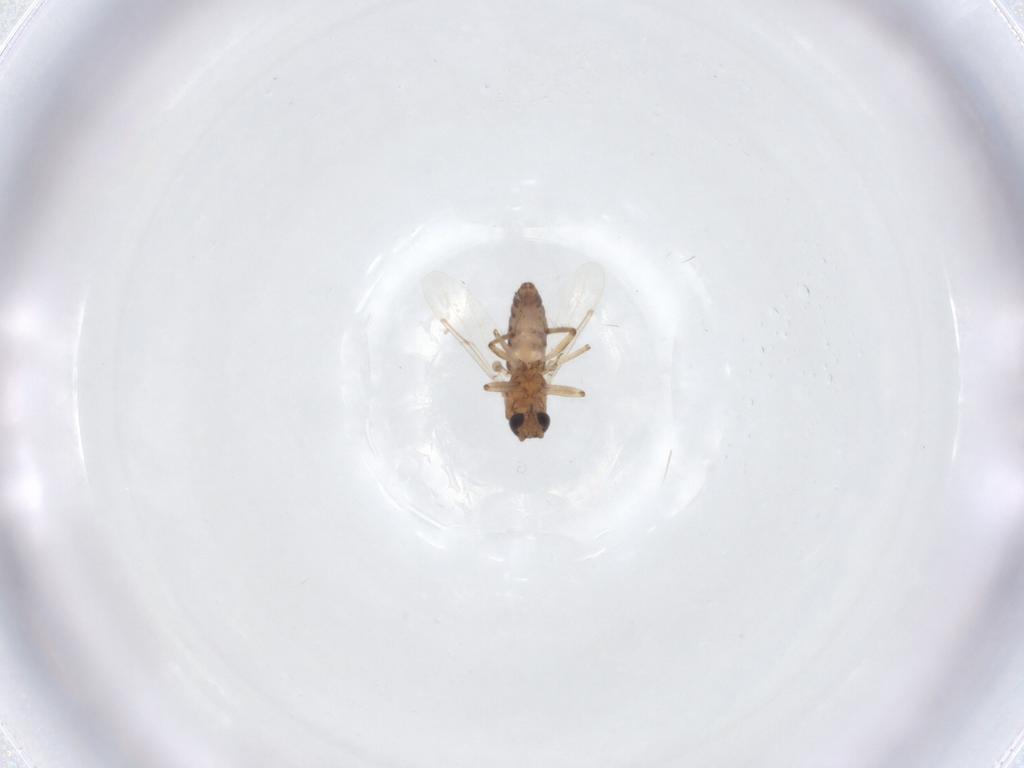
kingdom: Animalia
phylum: Arthropoda
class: Insecta
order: Diptera
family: Ceratopogonidae
